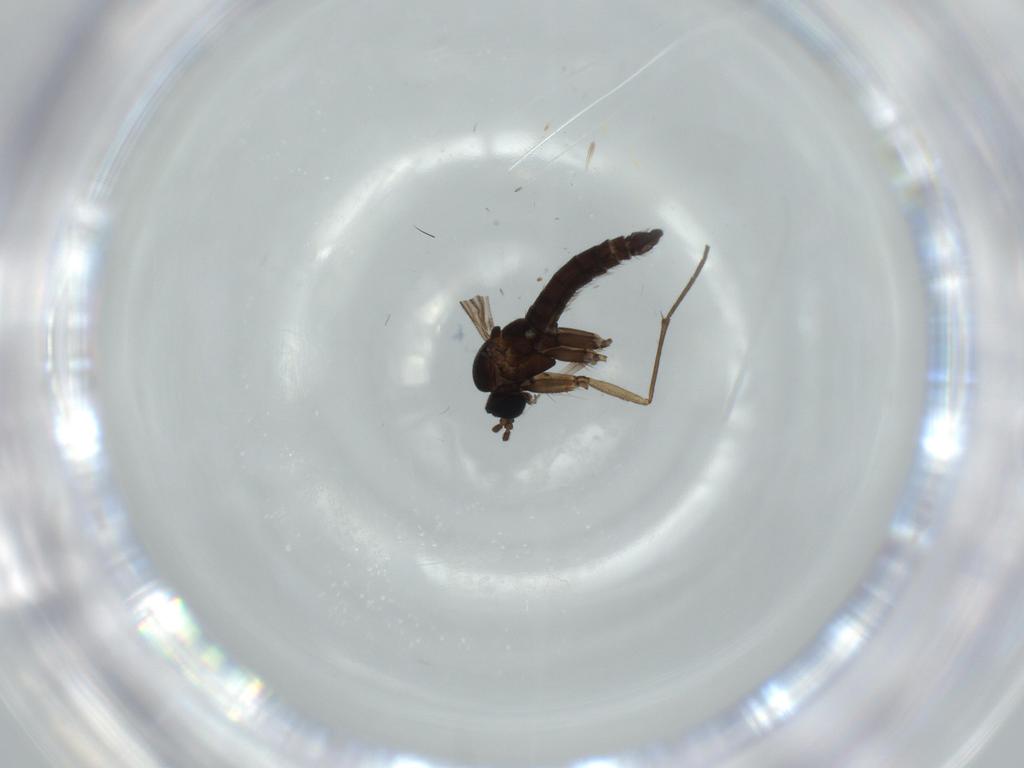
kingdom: Animalia
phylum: Arthropoda
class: Insecta
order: Diptera
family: Sciaridae
